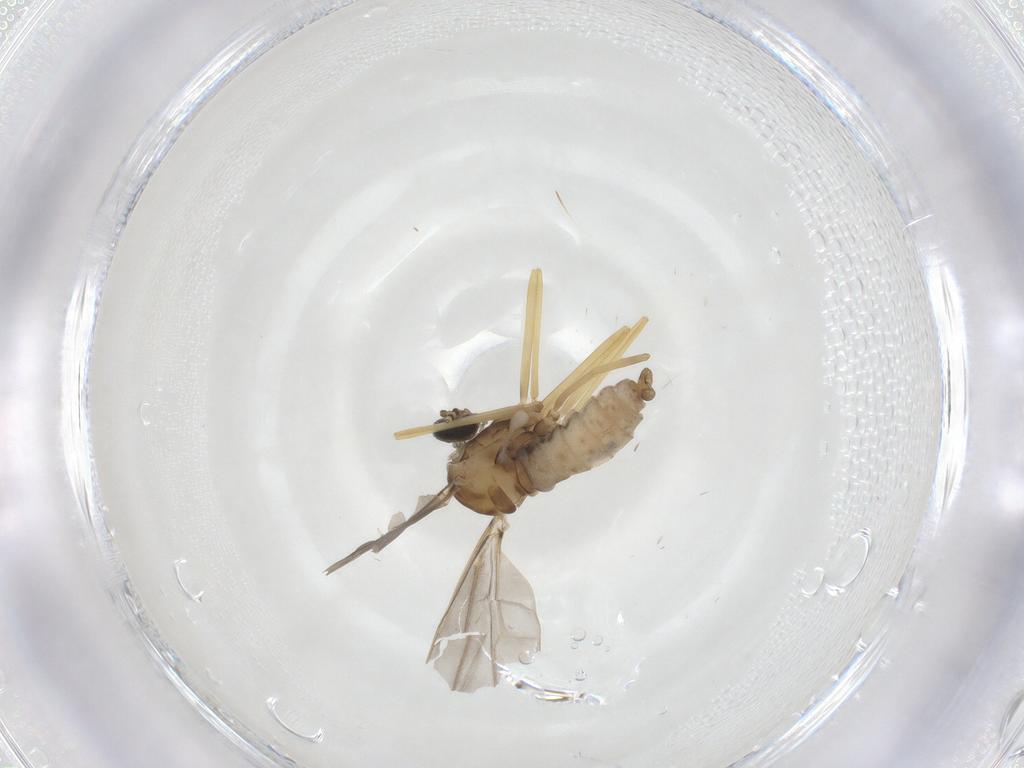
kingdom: Animalia
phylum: Arthropoda
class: Insecta
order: Diptera
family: Cecidomyiidae
